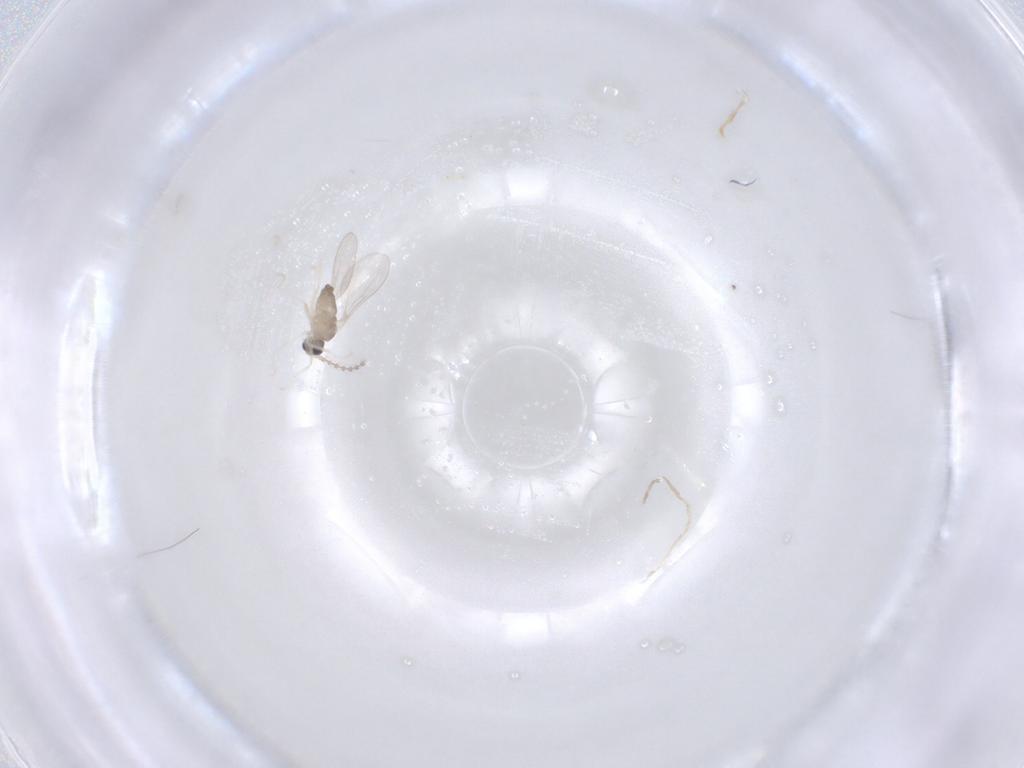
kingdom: Animalia
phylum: Arthropoda
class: Insecta
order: Diptera
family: Cecidomyiidae
